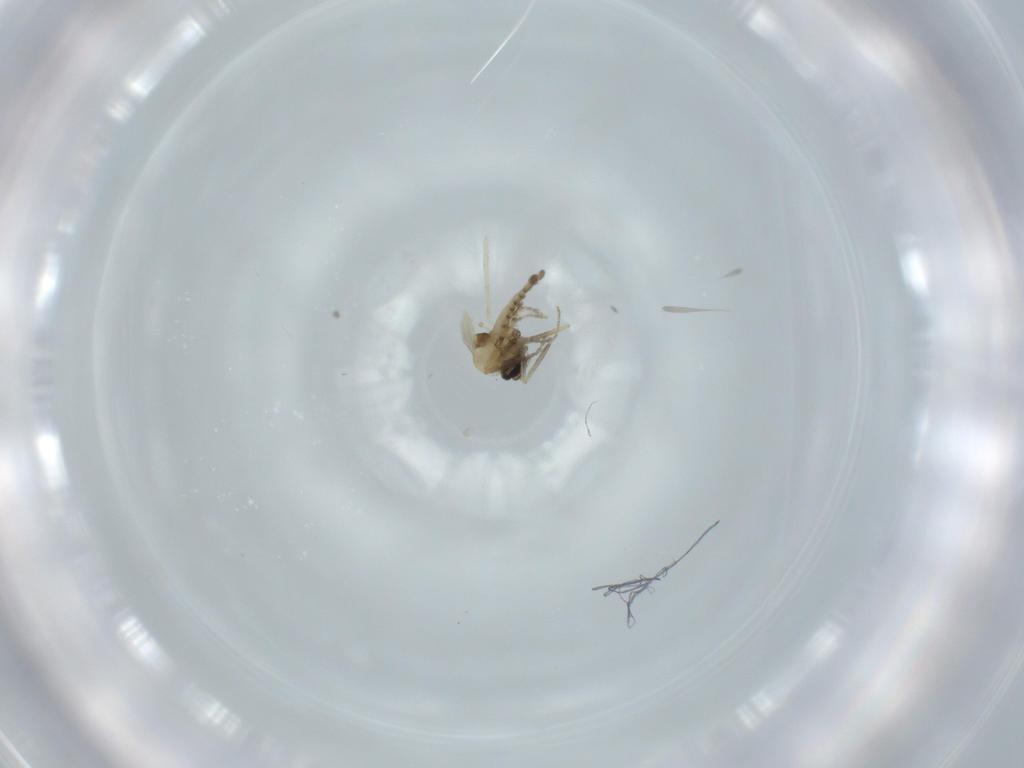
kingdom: Animalia
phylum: Arthropoda
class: Insecta
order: Diptera
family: Ceratopogonidae
